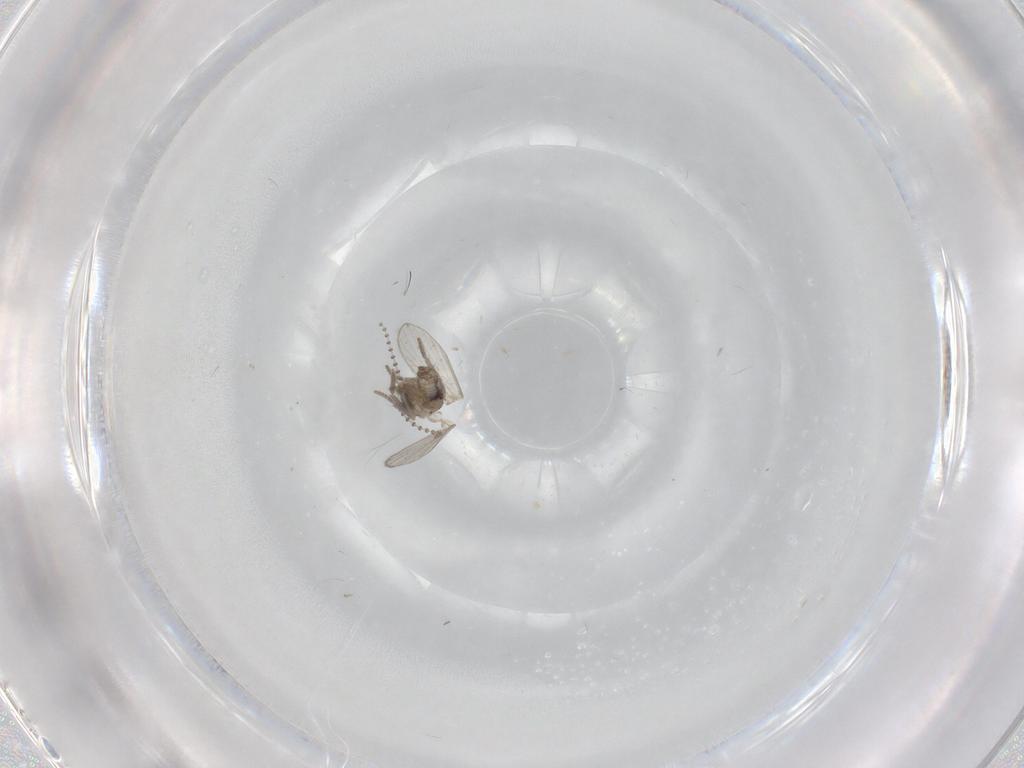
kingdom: Animalia
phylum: Arthropoda
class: Insecta
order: Diptera
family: Psychodidae
